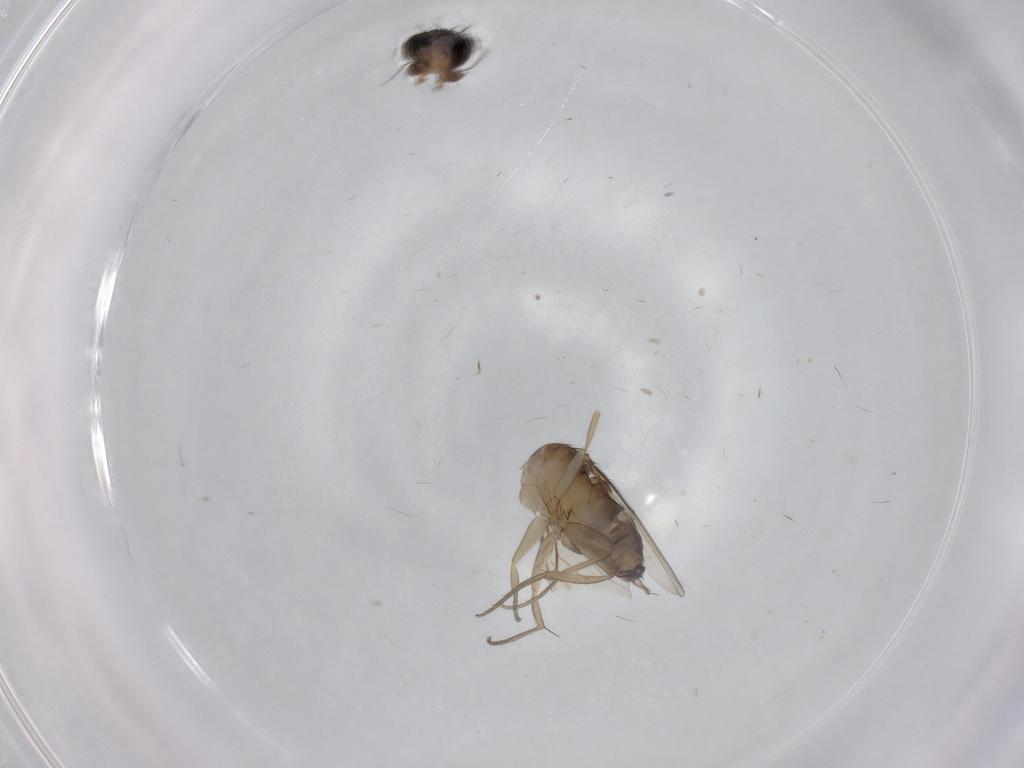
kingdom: Animalia
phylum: Arthropoda
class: Insecta
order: Diptera
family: Phoridae
